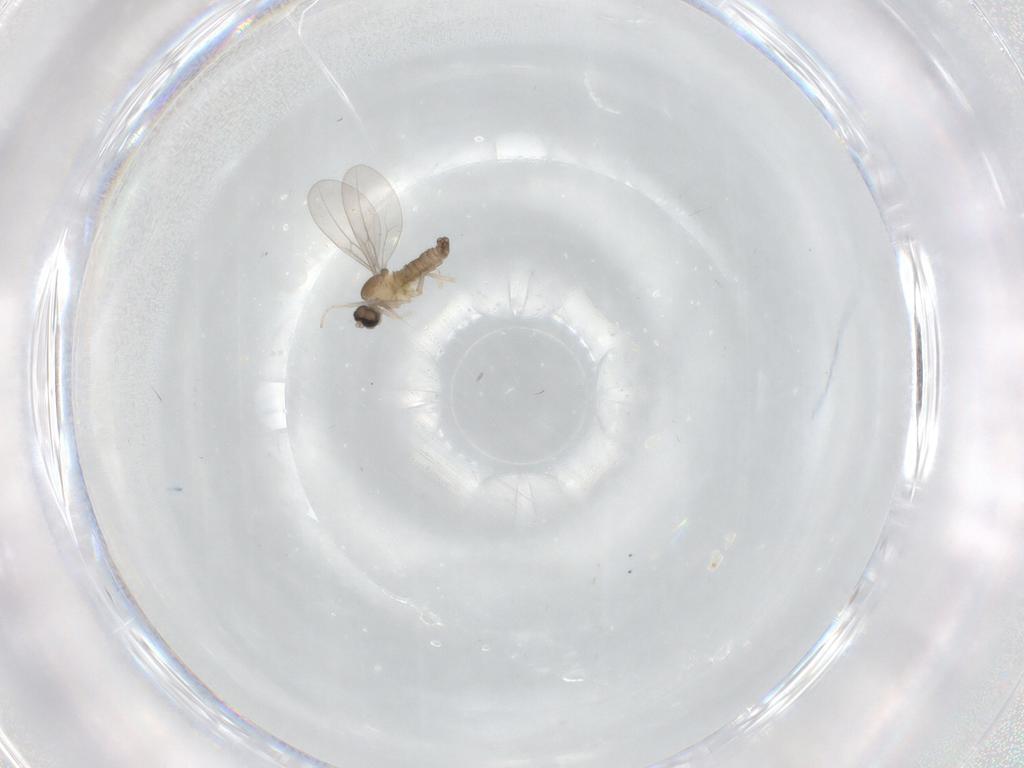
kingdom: Animalia
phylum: Arthropoda
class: Insecta
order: Diptera
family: Cecidomyiidae
